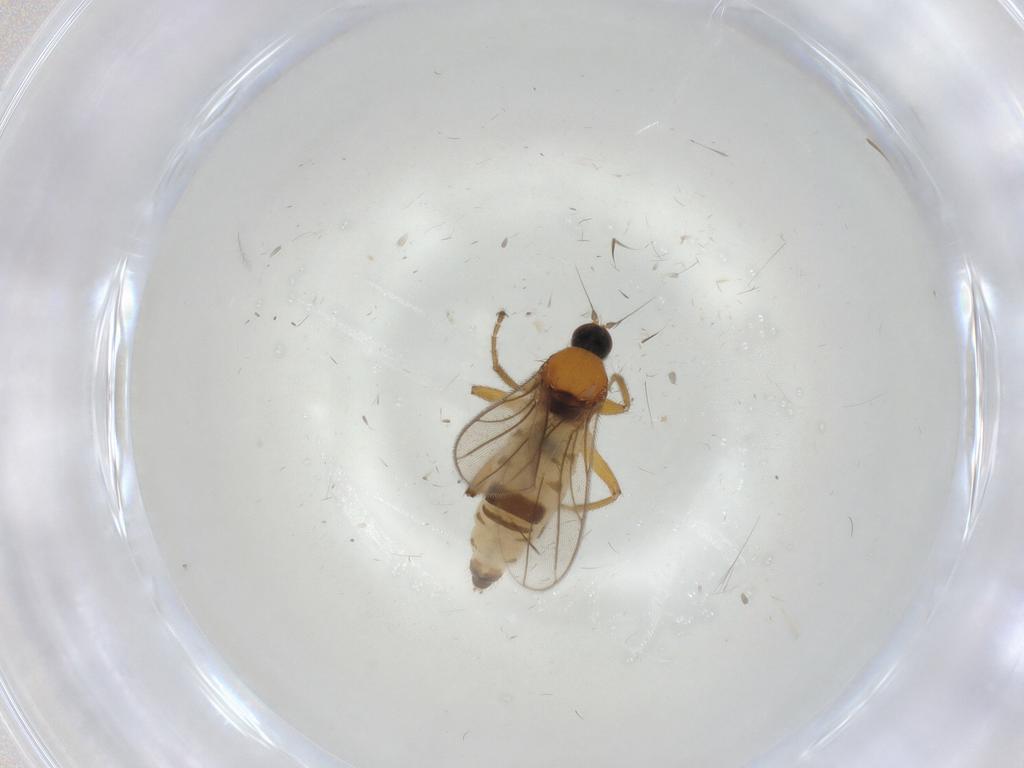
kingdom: Animalia
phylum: Arthropoda
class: Insecta
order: Diptera
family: Hybotidae
